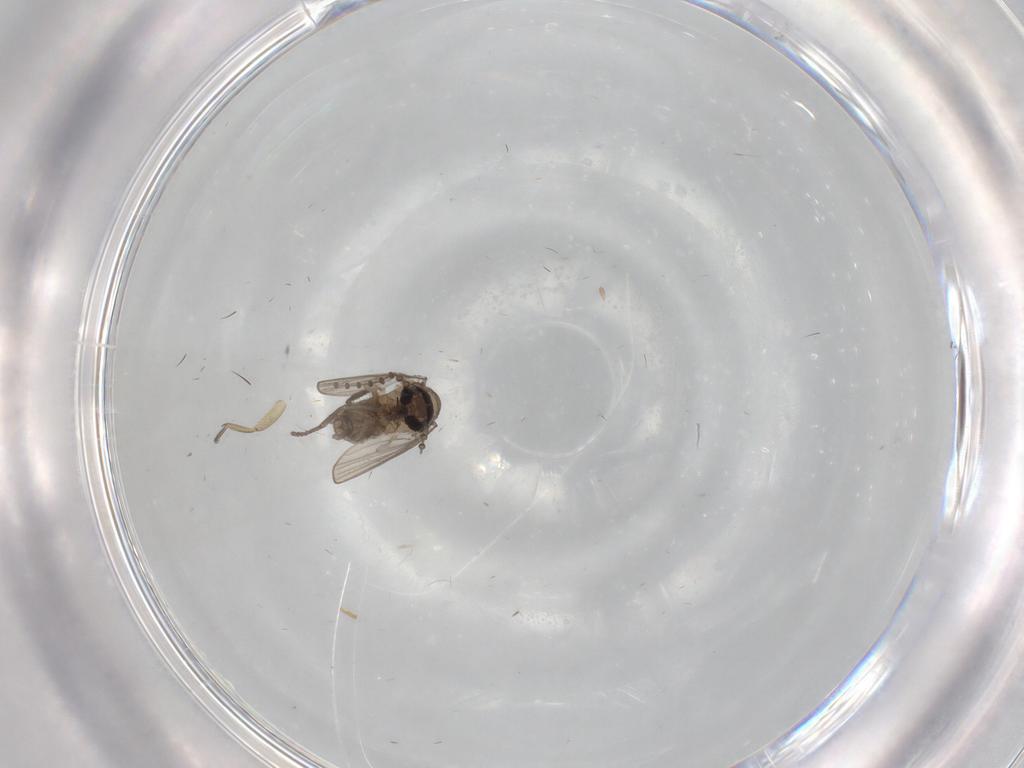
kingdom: Animalia
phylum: Arthropoda
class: Insecta
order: Diptera
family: Psychodidae
